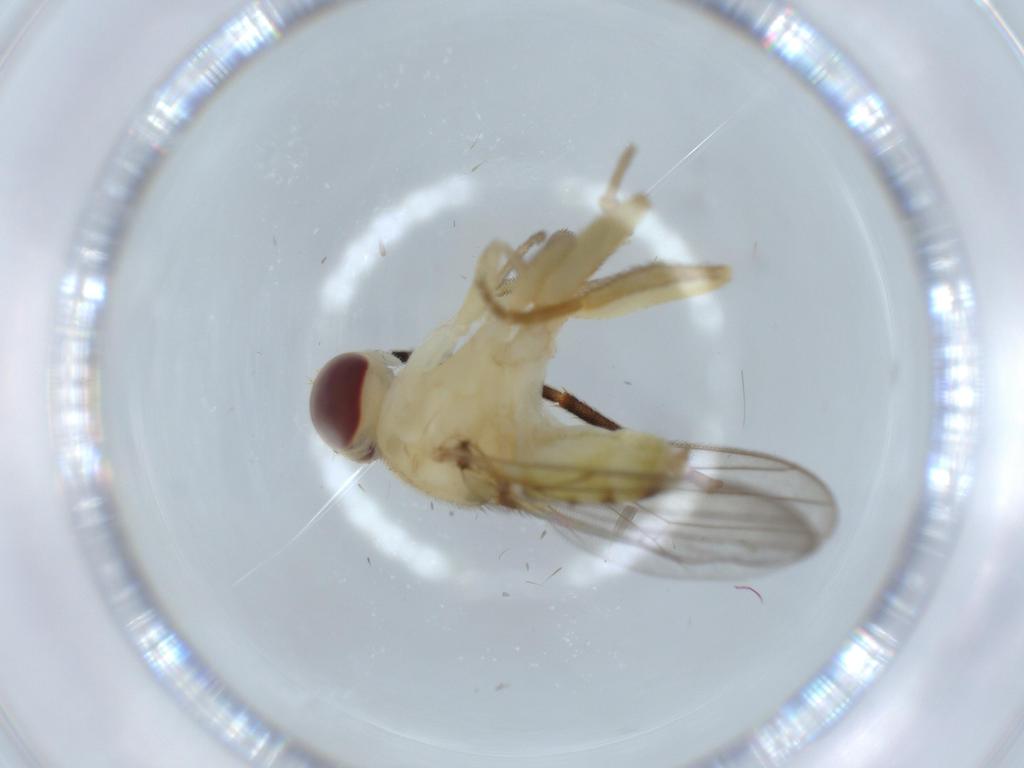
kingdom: Animalia
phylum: Arthropoda
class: Insecta
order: Diptera
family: Chloropidae
